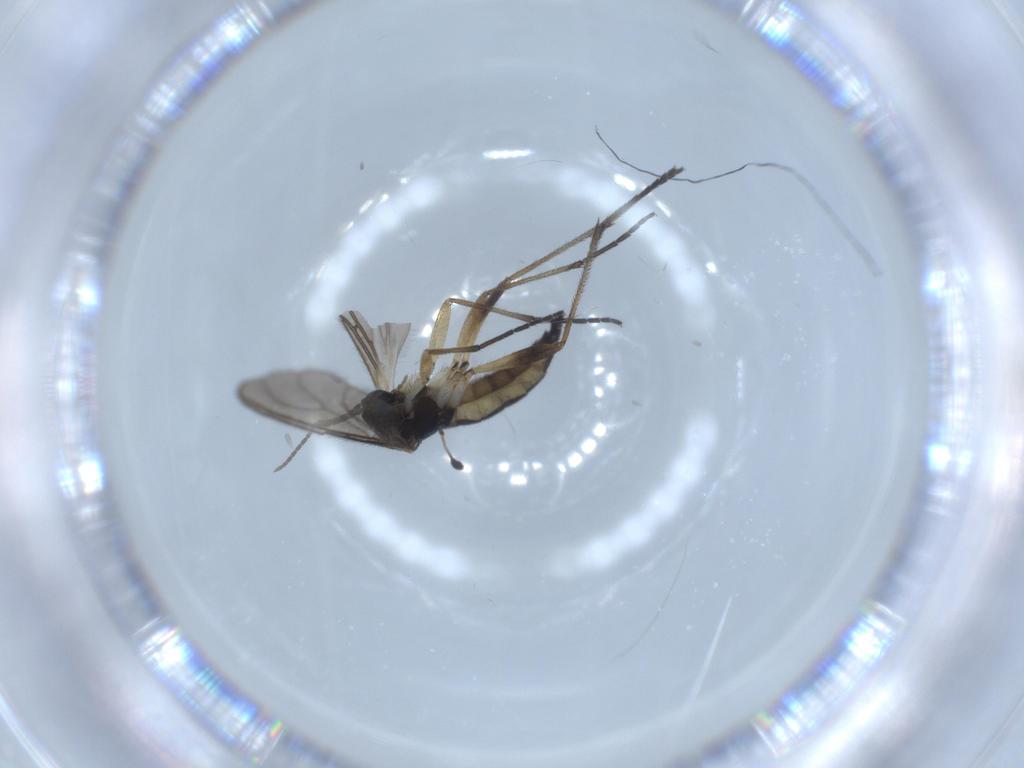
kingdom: Animalia
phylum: Arthropoda
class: Insecta
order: Diptera
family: Sciaridae
